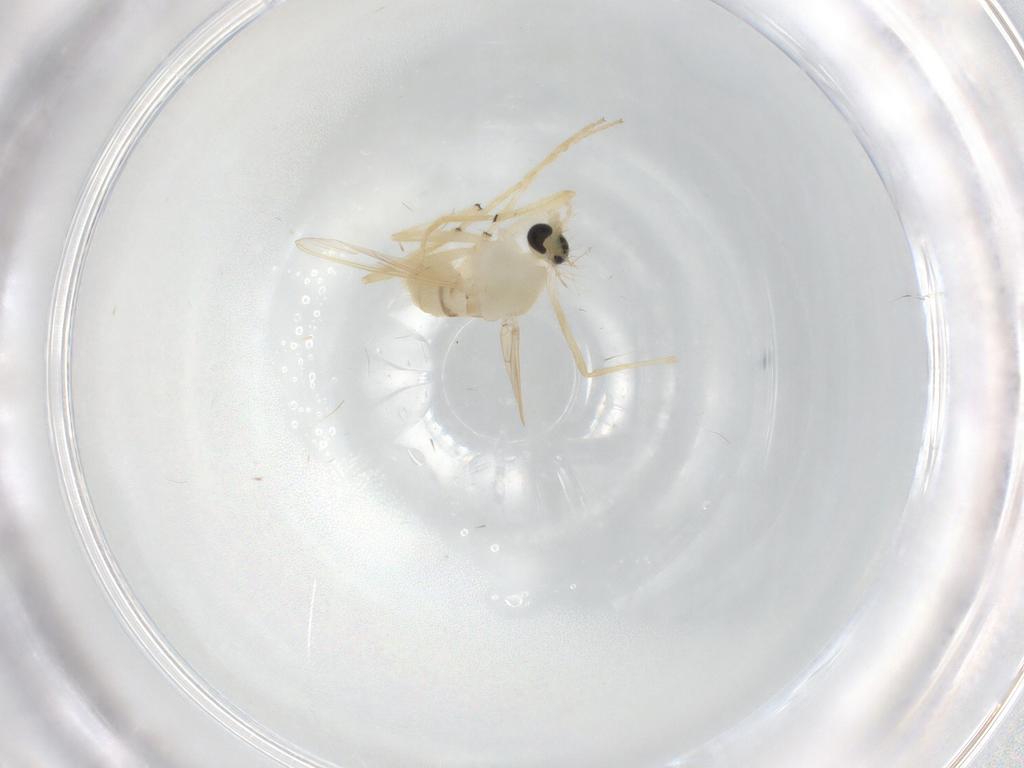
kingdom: Animalia
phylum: Arthropoda
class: Insecta
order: Diptera
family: Chironomidae
